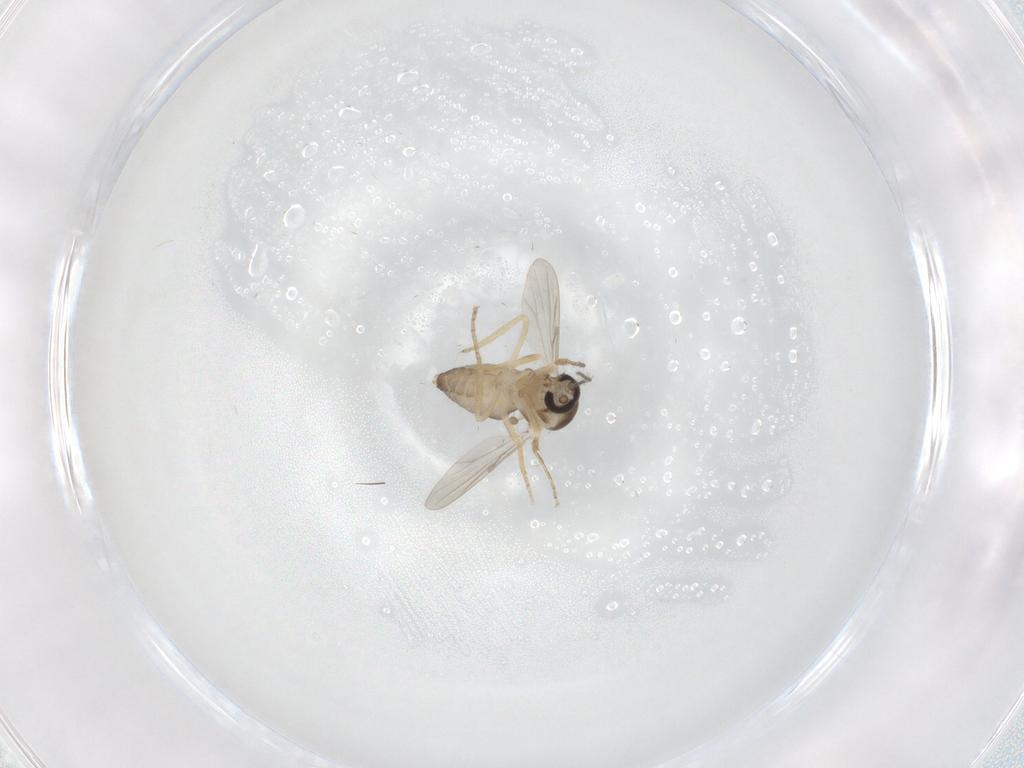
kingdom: Animalia
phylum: Arthropoda
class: Insecta
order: Diptera
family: Ceratopogonidae
